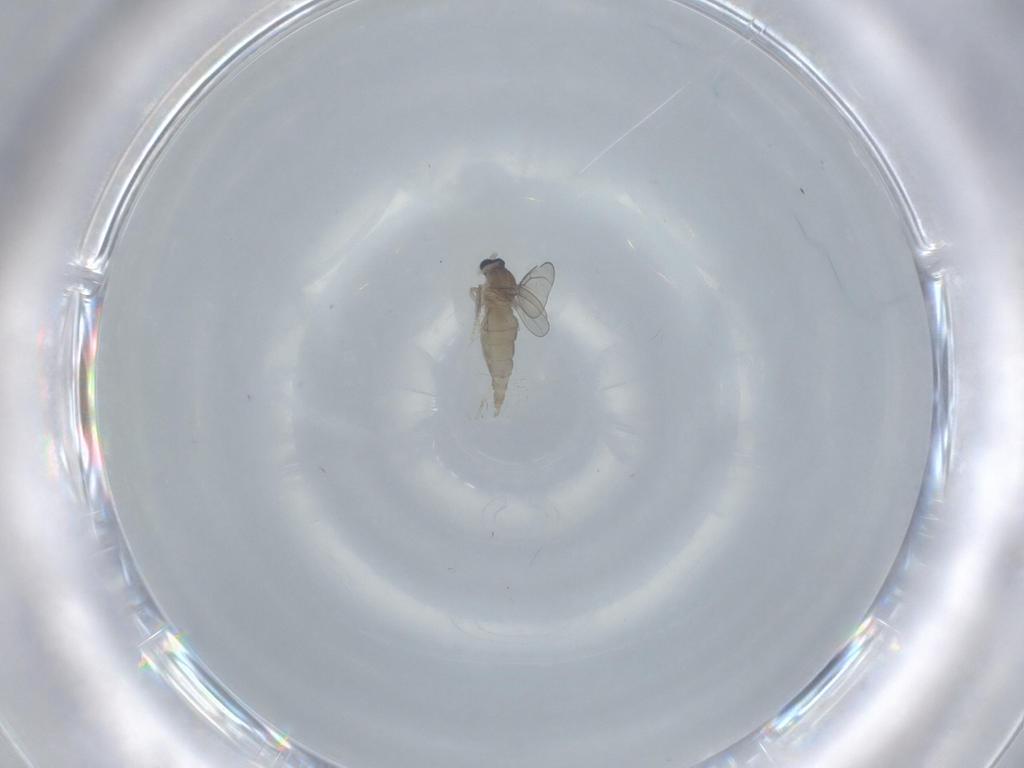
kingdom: Animalia
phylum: Arthropoda
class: Insecta
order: Diptera
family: Cecidomyiidae
